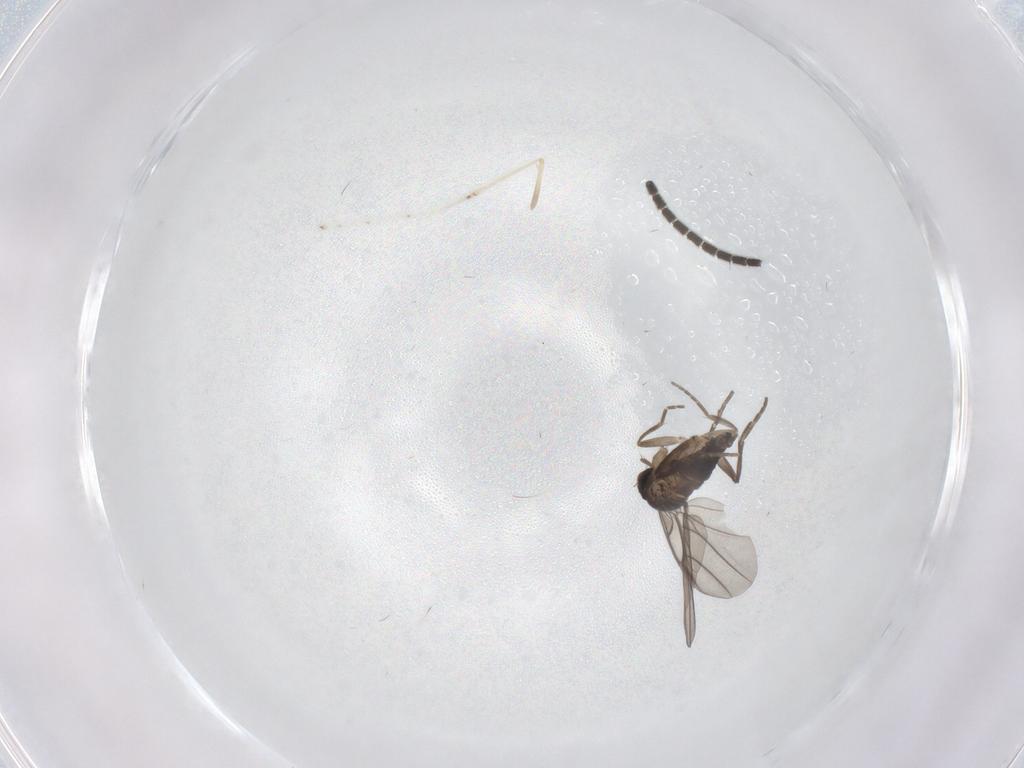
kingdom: Animalia
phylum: Arthropoda
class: Insecta
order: Diptera
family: Phoridae
